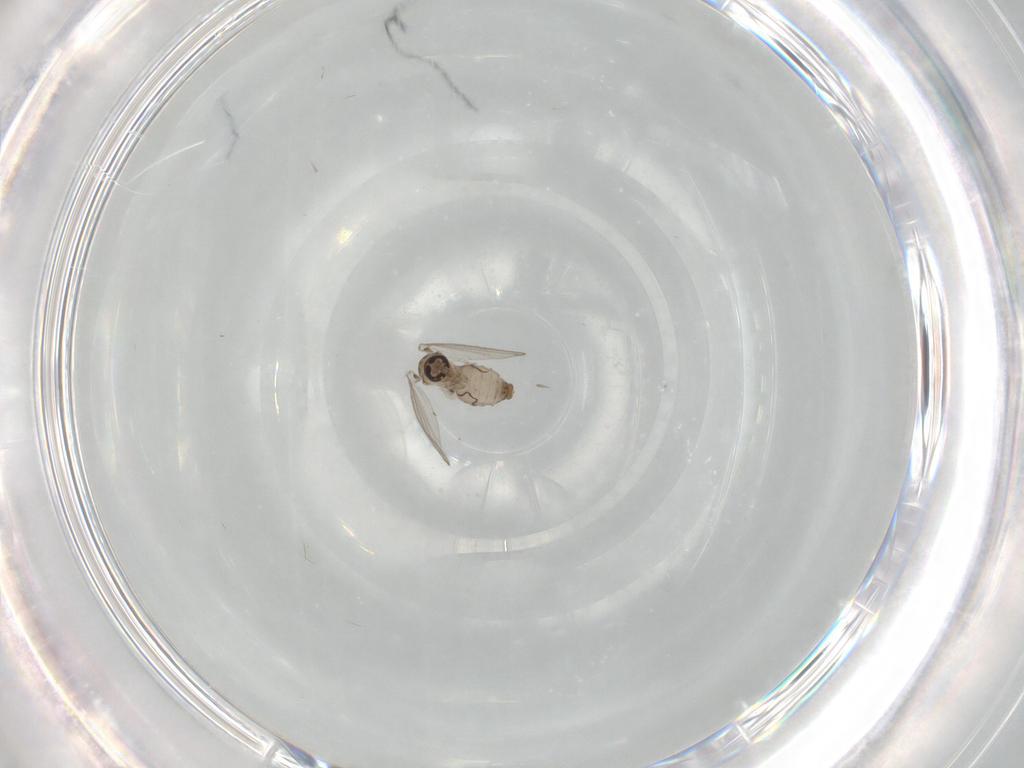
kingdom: Animalia
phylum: Arthropoda
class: Insecta
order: Diptera
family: Psychodidae
